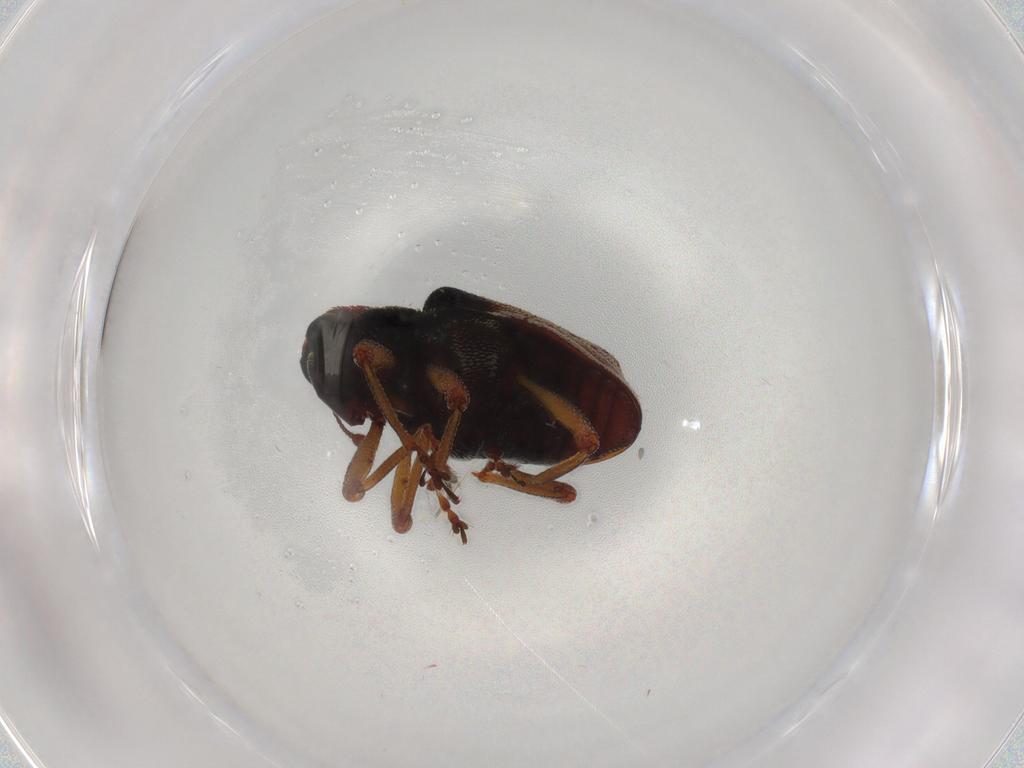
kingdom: Animalia
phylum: Arthropoda
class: Insecta
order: Coleoptera
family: Curculionidae
